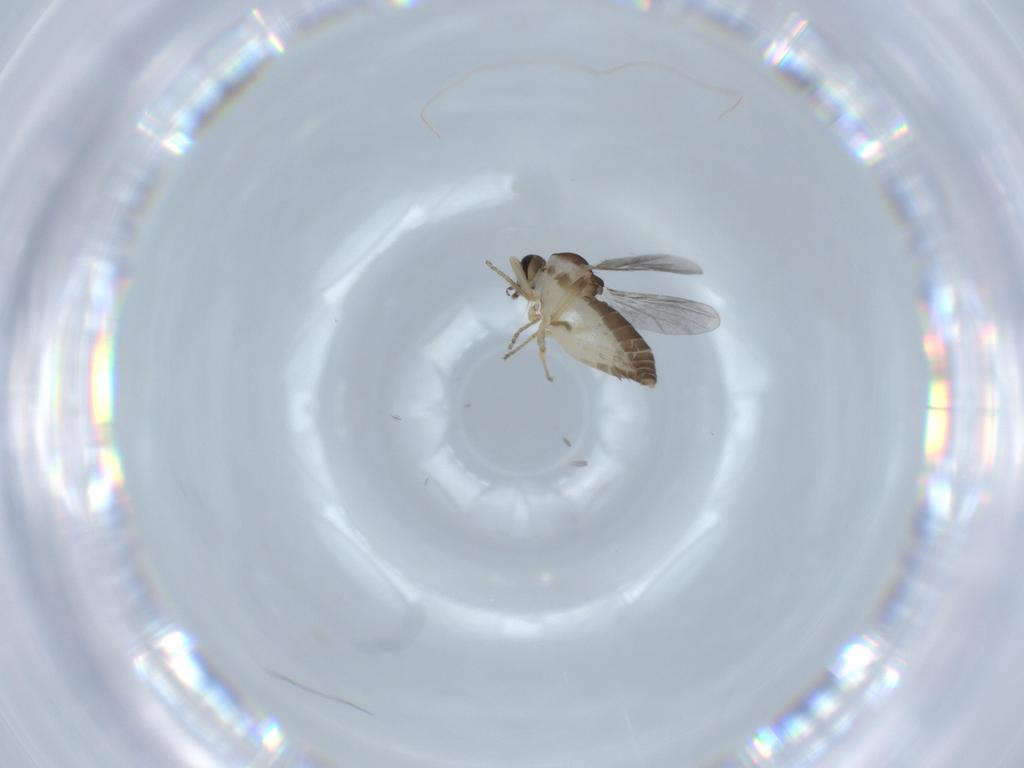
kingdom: Animalia
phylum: Arthropoda
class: Insecta
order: Diptera
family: Ceratopogonidae
